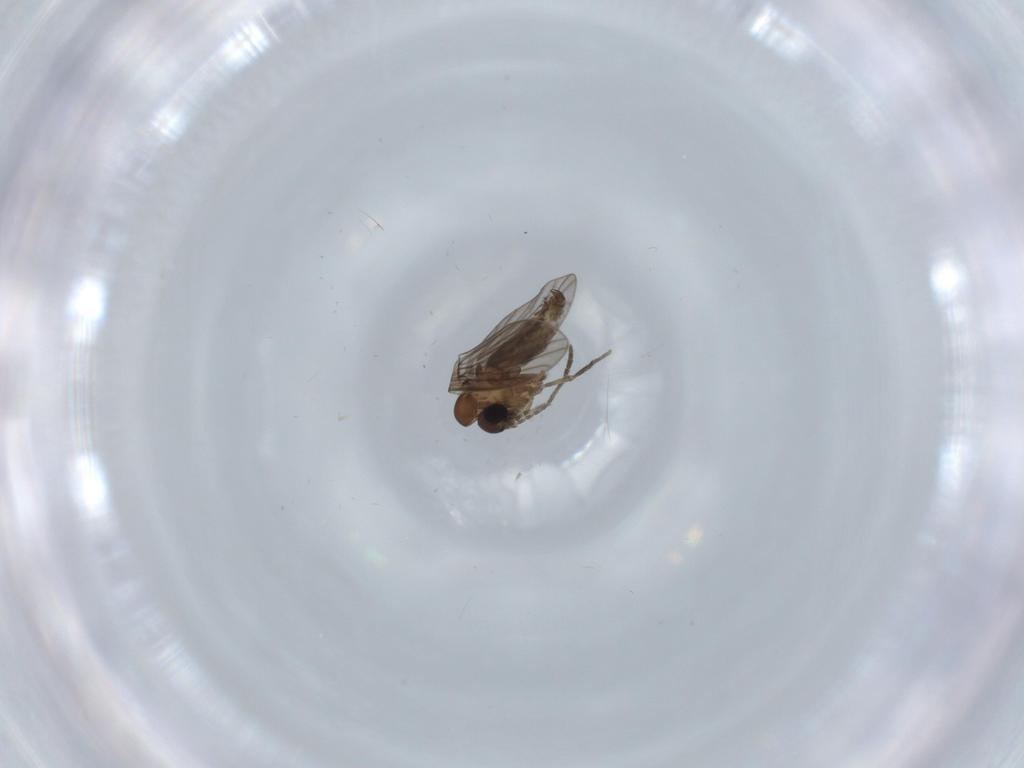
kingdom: Animalia
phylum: Arthropoda
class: Insecta
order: Diptera
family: Psychodidae
